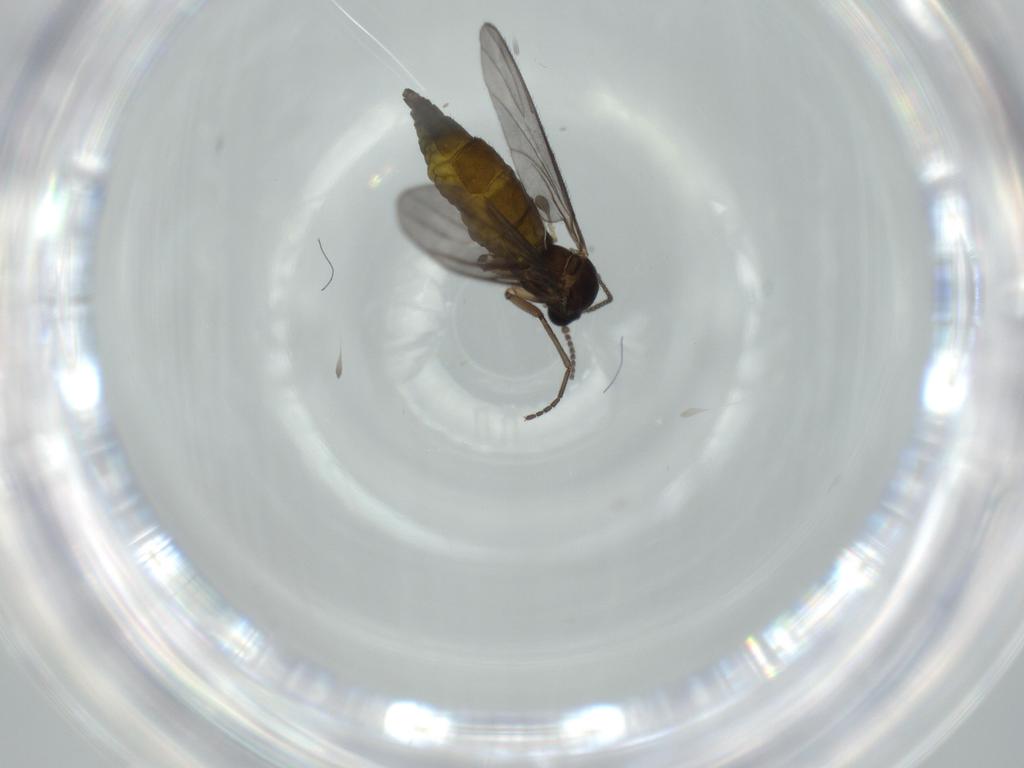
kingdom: Animalia
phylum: Arthropoda
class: Insecta
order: Diptera
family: Sciaridae
